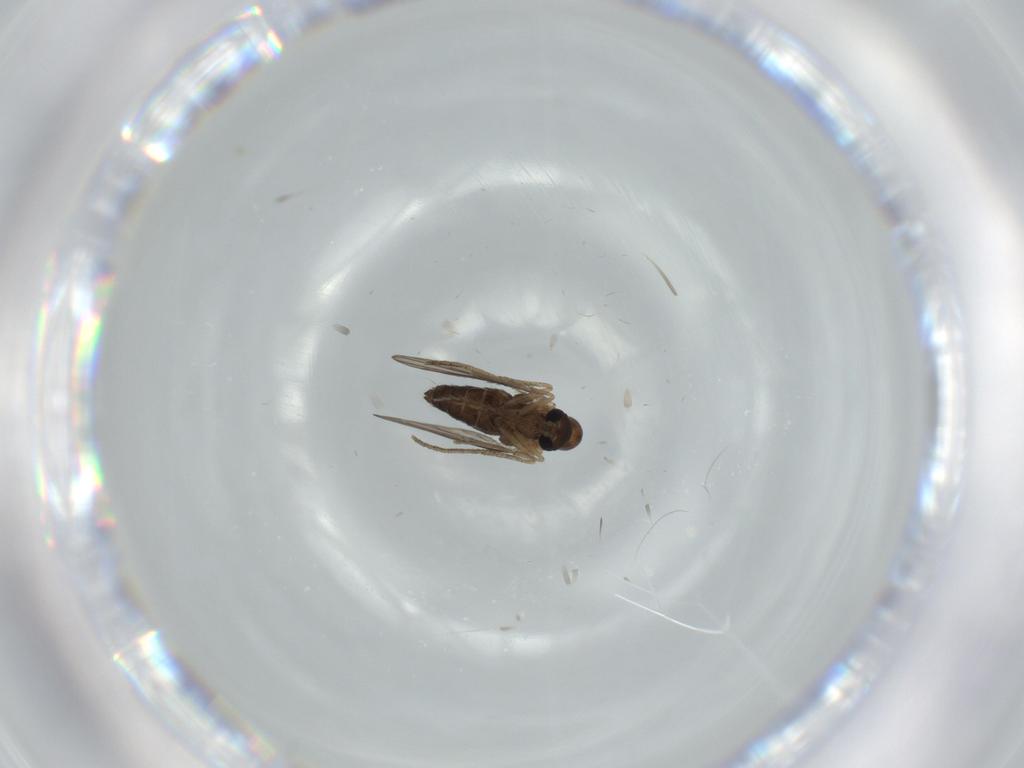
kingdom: Animalia
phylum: Arthropoda
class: Insecta
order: Diptera
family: Psychodidae
